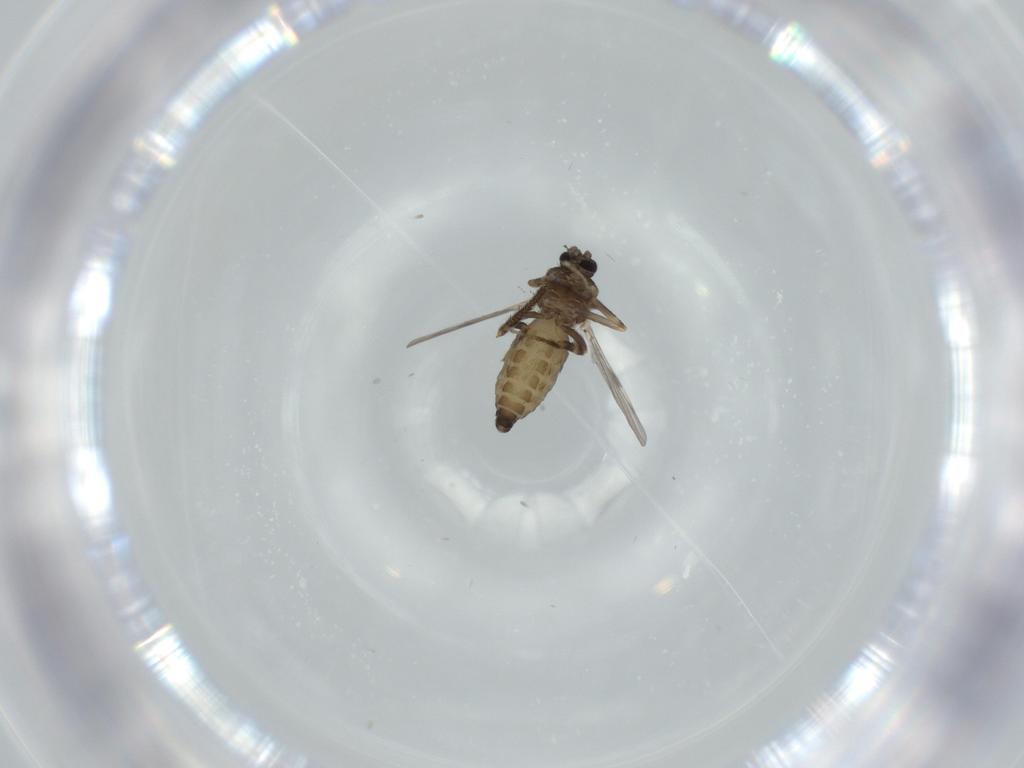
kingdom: Animalia
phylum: Arthropoda
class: Insecta
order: Diptera
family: Ceratopogonidae
